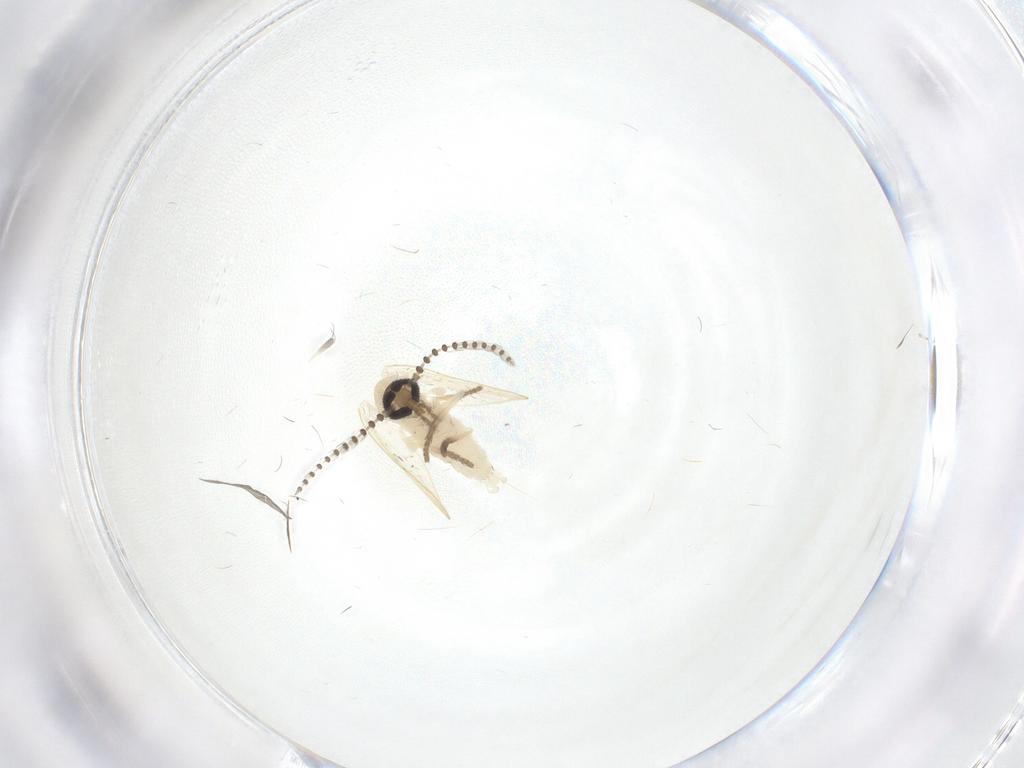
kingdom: Animalia
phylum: Arthropoda
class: Insecta
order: Diptera
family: Psychodidae
